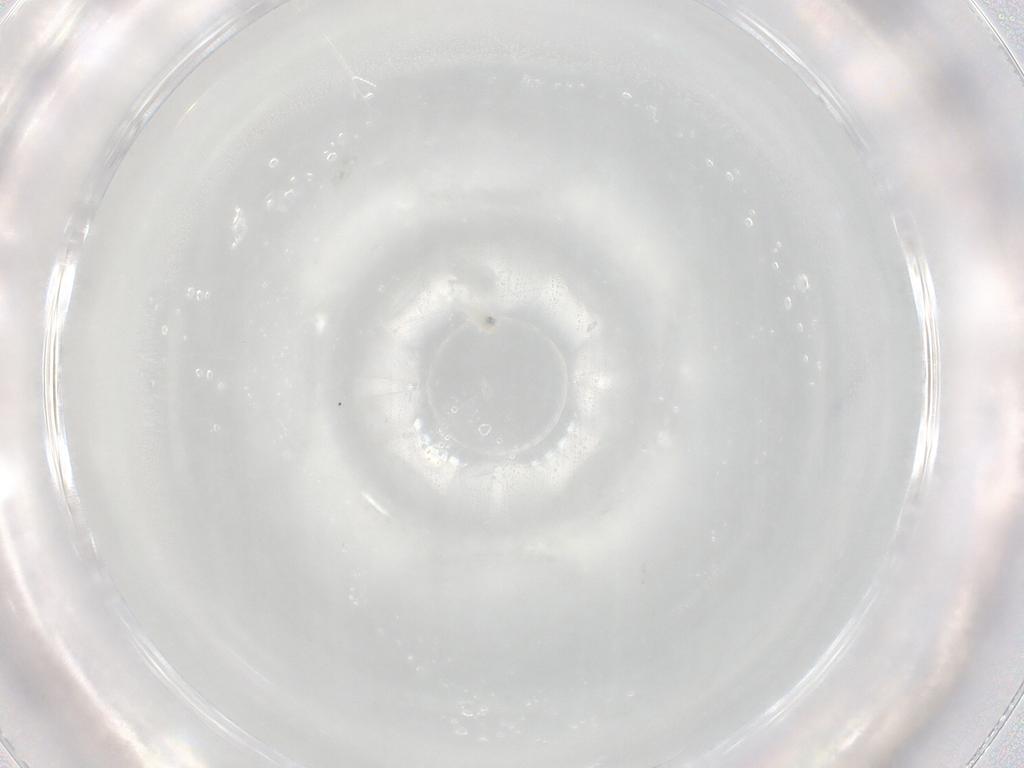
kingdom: Animalia
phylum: Arthropoda
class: Arachnida
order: Trombidiformes
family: Rhagidiidae
